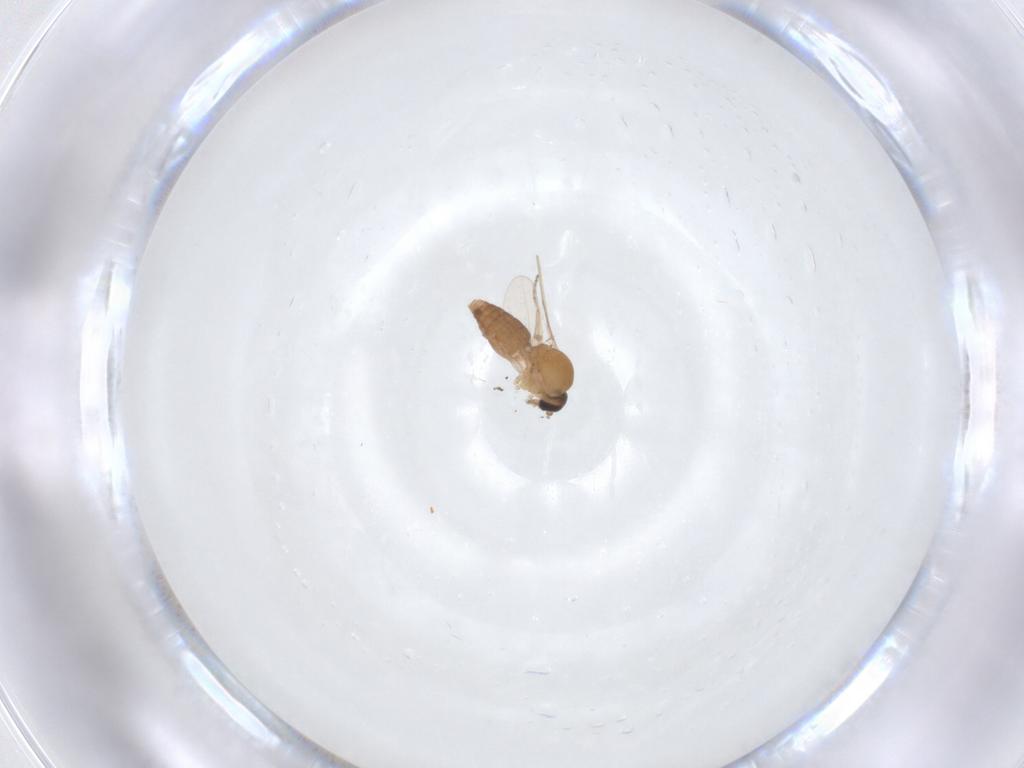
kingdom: Animalia
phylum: Arthropoda
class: Insecta
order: Diptera
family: Ceratopogonidae
